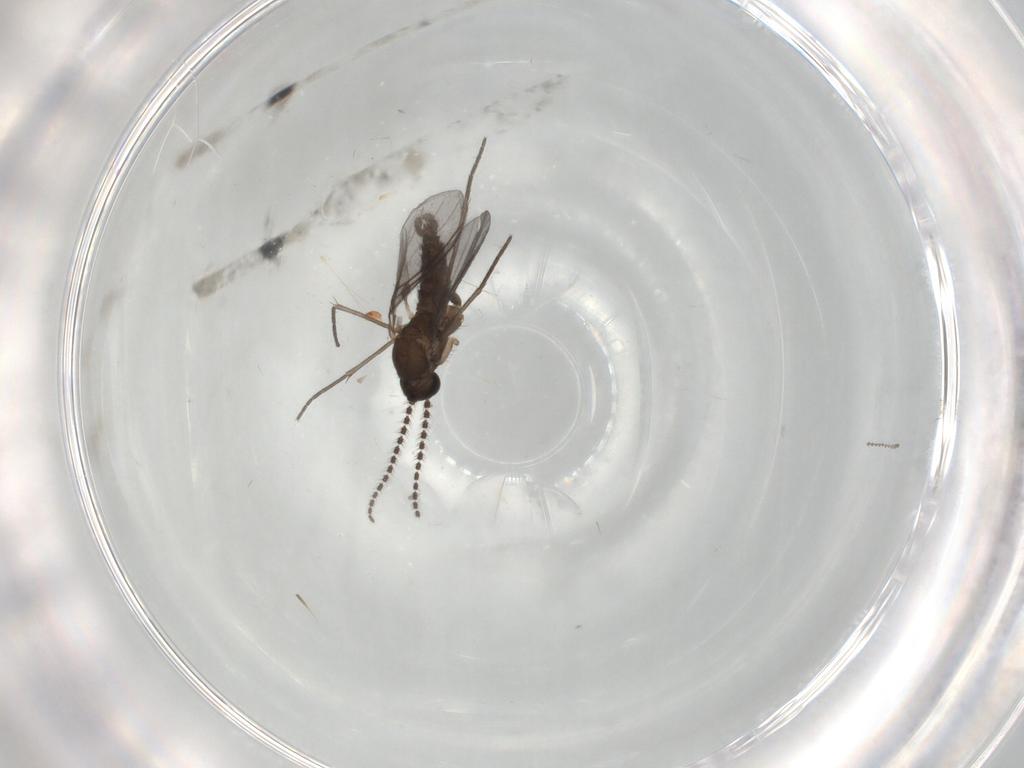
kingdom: Animalia
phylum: Arthropoda
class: Insecta
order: Diptera
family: Sciaridae
